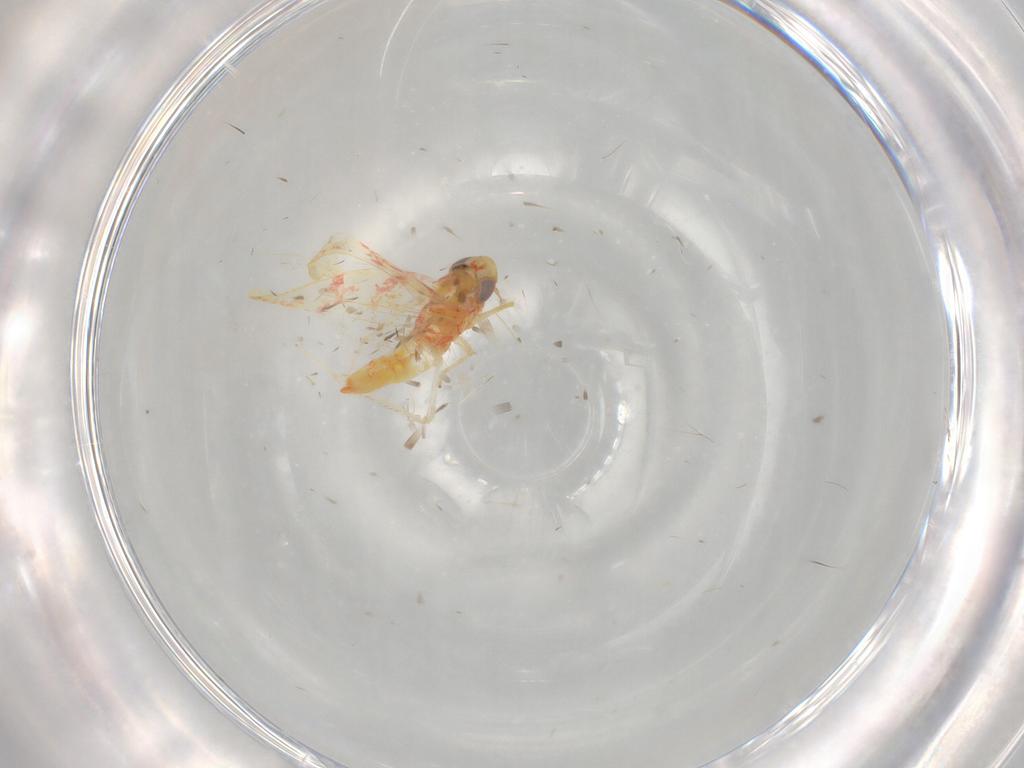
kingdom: Animalia
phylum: Arthropoda
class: Insecta
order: Hemiptera
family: Cicadellidae
